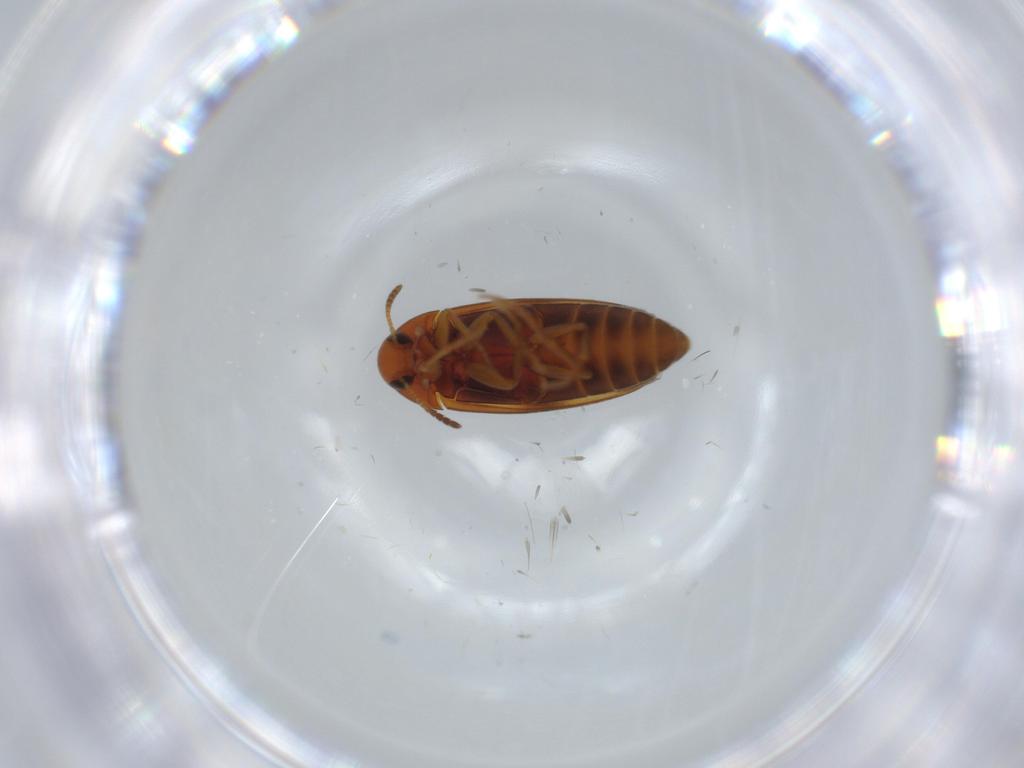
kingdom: Animalia
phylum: Arthropoda
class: Insecta
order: Coleoptera
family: Scraptiidae
